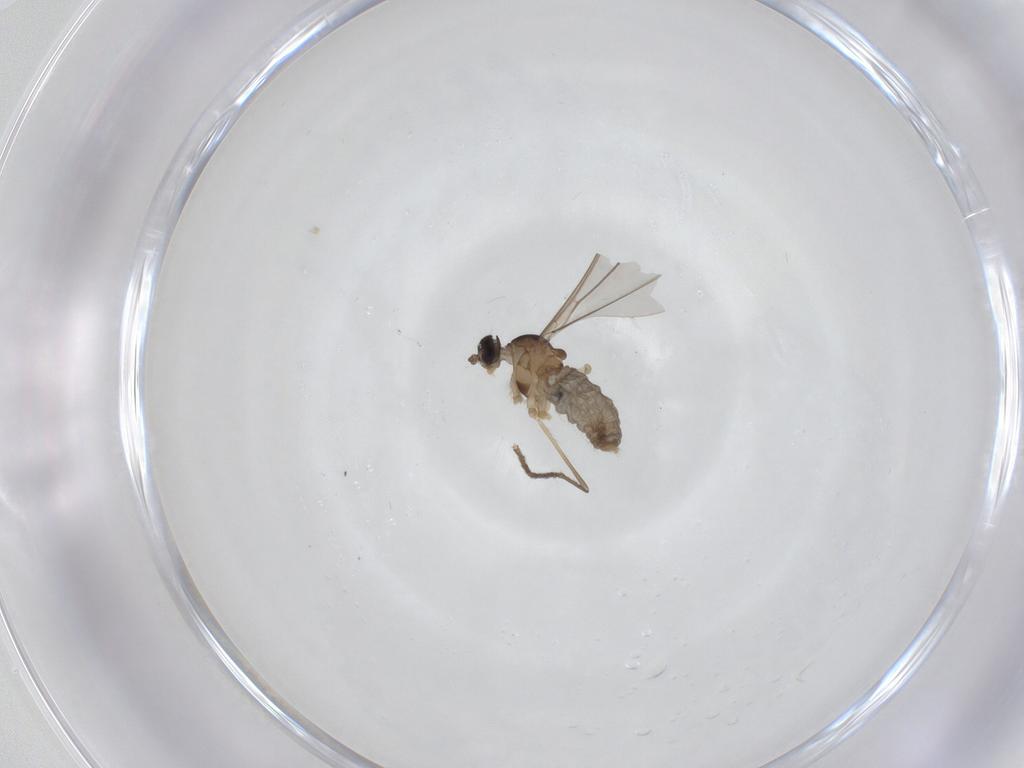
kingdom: Animalia
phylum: Arthropoda
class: Insecta
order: Diptera
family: Cecidomyiidae
